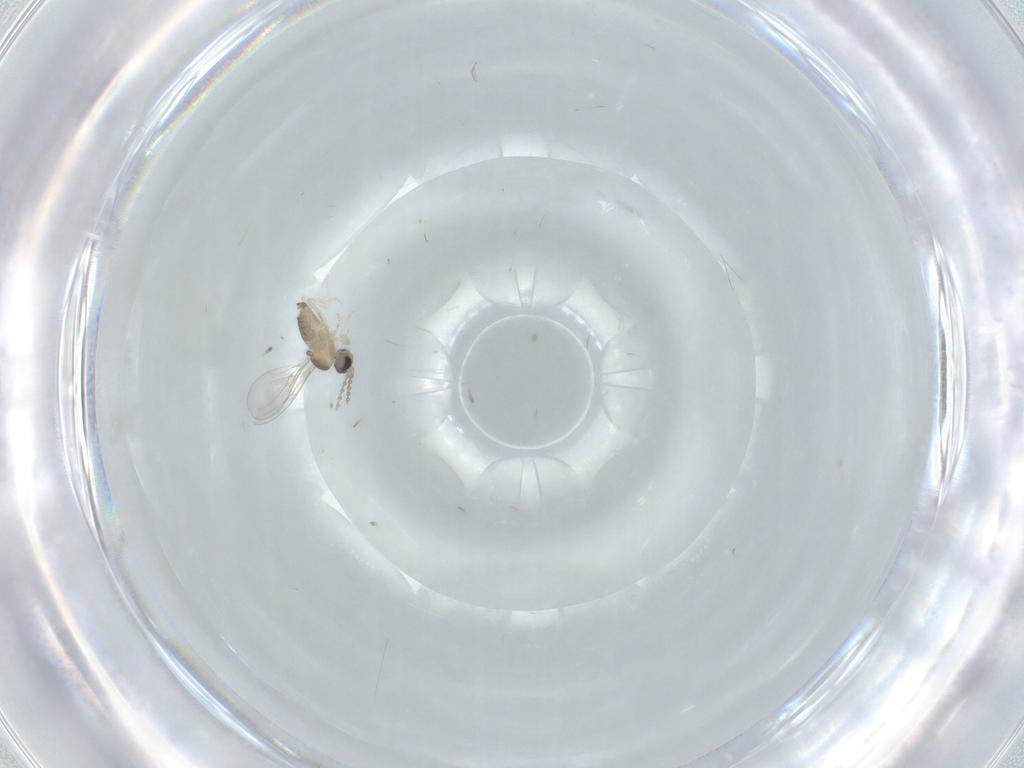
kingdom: Animalia
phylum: Arthropoda
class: Insecta
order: Diptera
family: Cecidomyiidae
